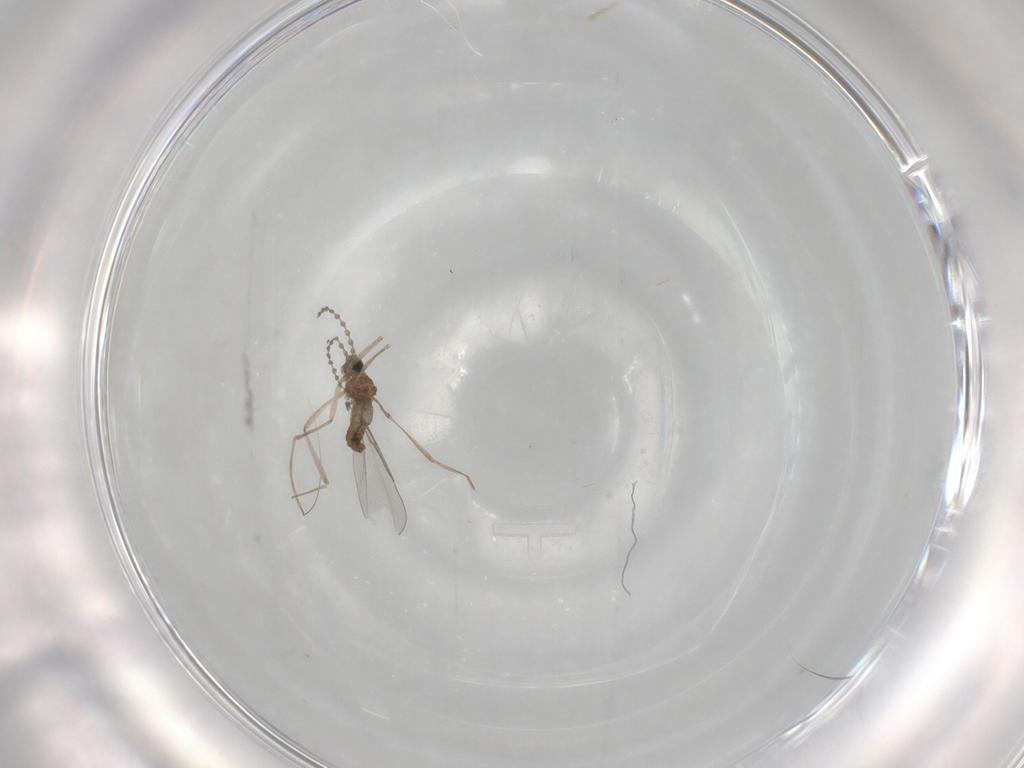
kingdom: Animalia
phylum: Arthropoda
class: Insecta
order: Diptera
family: Cecidomyiidae
